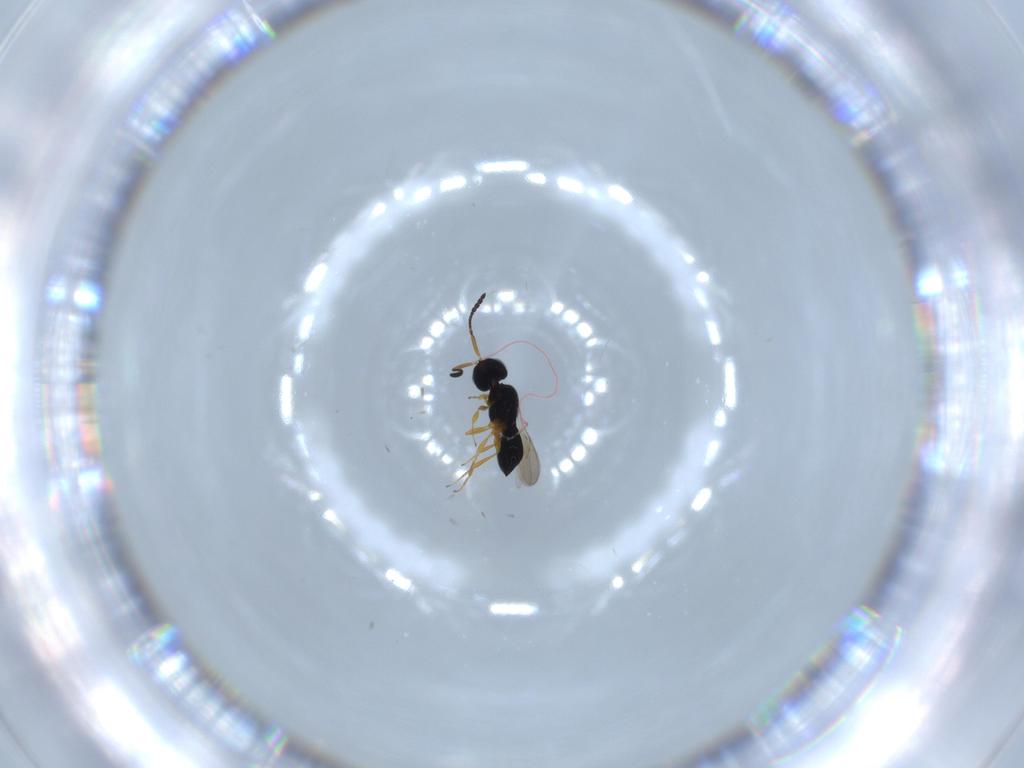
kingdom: Animalia
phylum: Arthropoda
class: Insecta
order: Hymenoptera
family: Scelionidae
